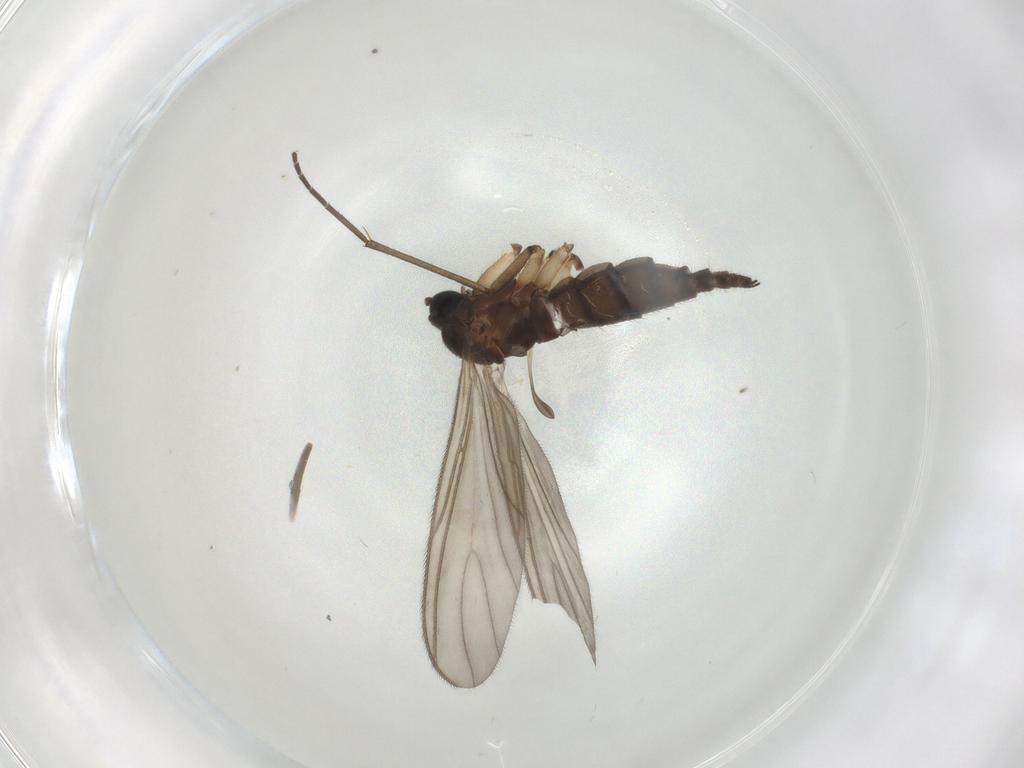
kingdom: Animalia
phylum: Arthropoda
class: Insecta
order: Diptera
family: Sciaridae
